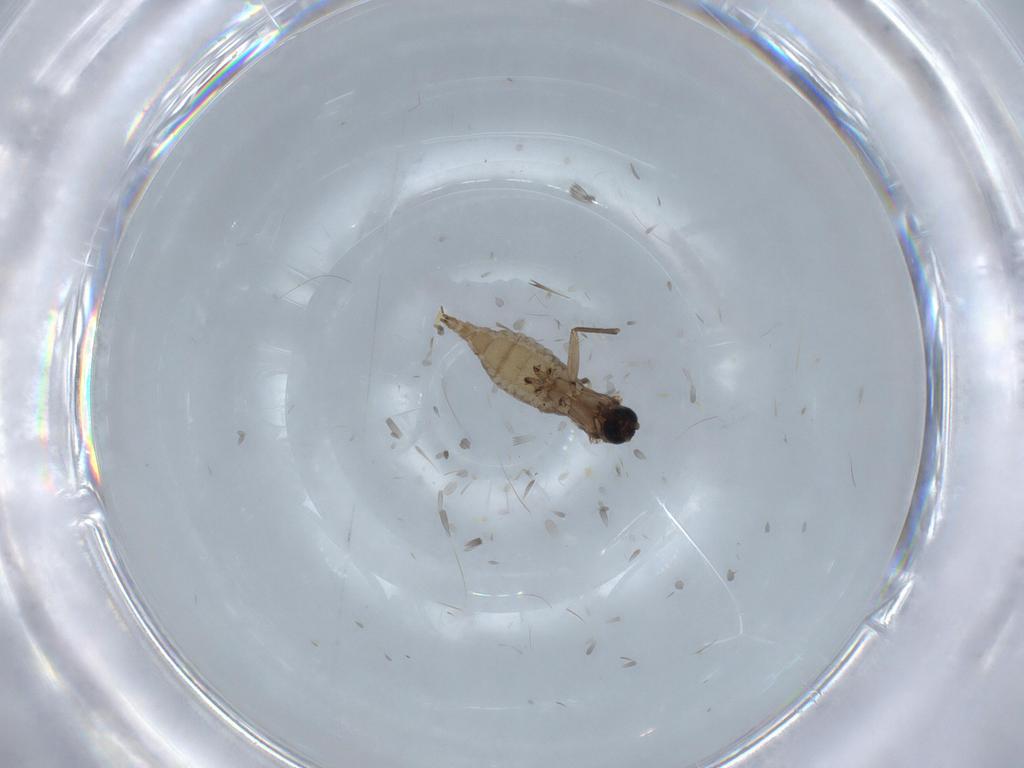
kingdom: Animalia
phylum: Arthropoda
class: Insecta
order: Diptera
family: Cecidomyiidae
